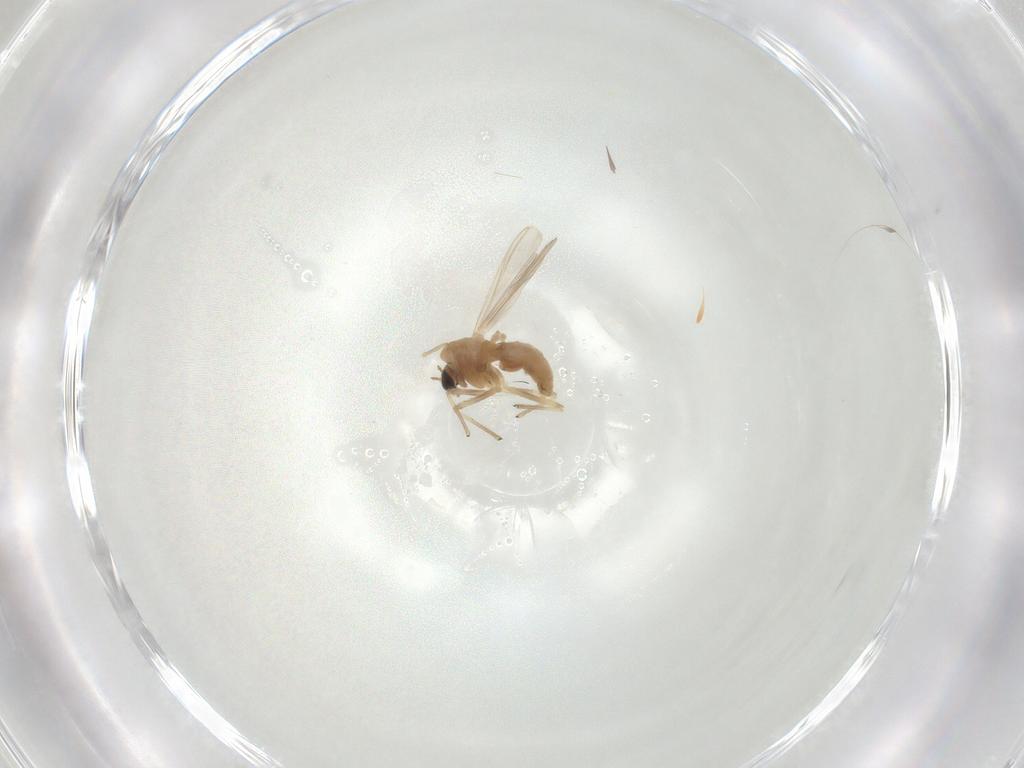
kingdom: Animalia
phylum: Arthropoda
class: Insecta
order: Diptera
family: Chironomidae
